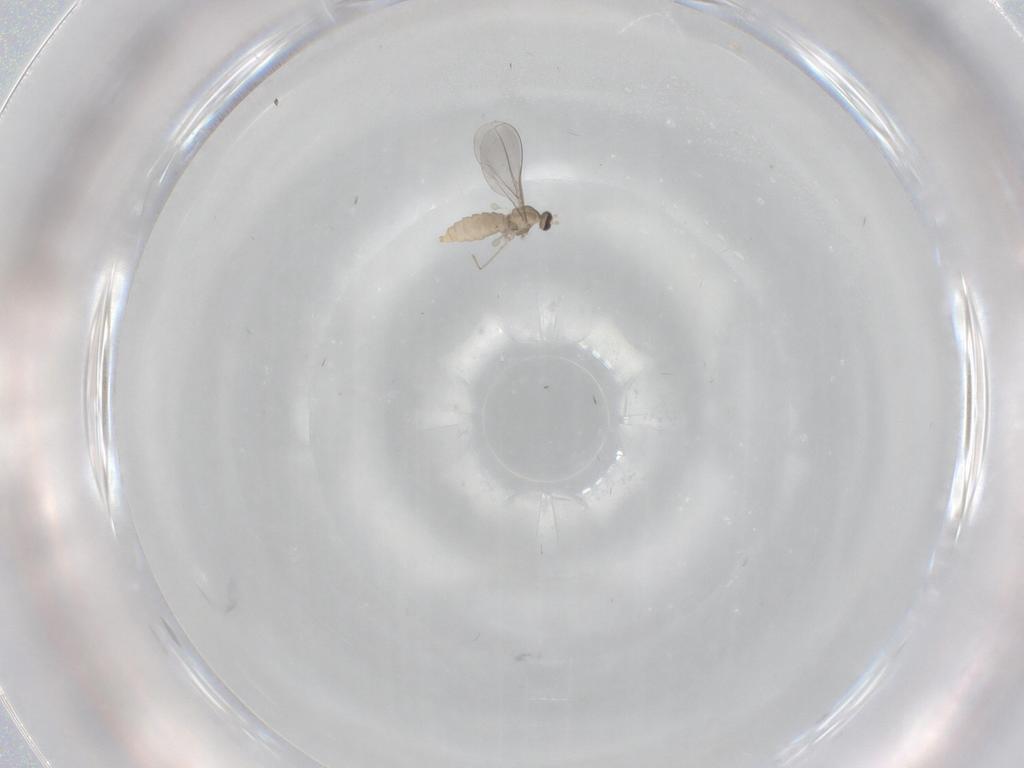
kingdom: Animalia
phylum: Arthropoda
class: Insecta
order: Diptera
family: Cecidomyiidae
